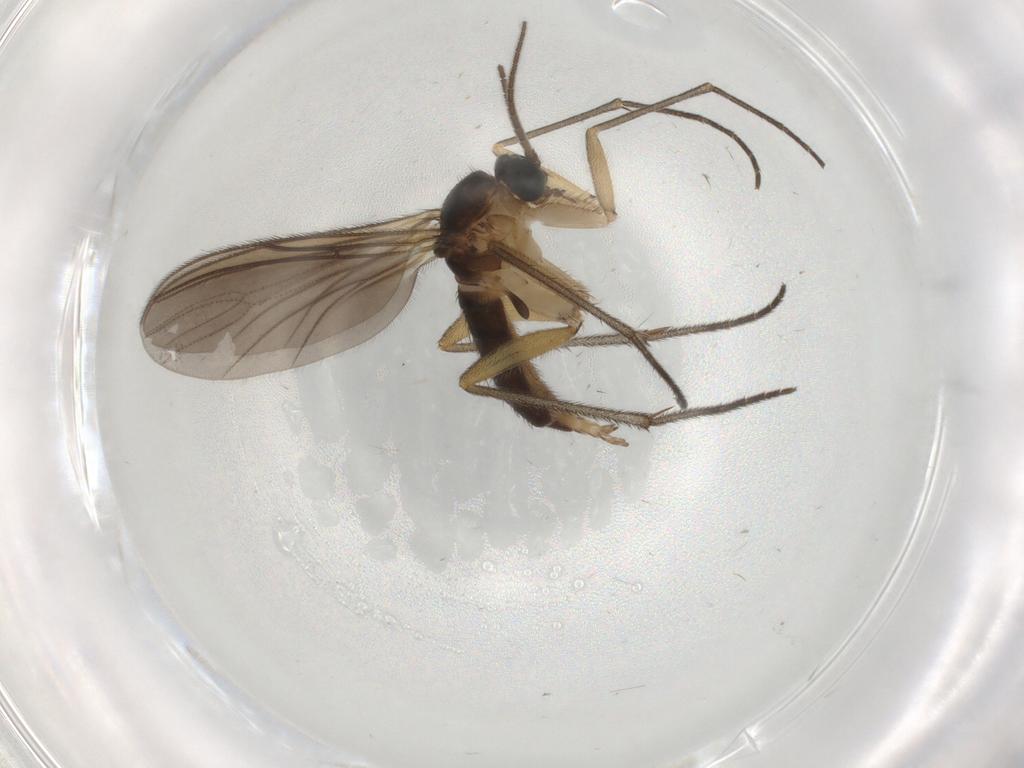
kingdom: Animalia
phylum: Arthropoda
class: Insecta
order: Diptera
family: Sciaridae
